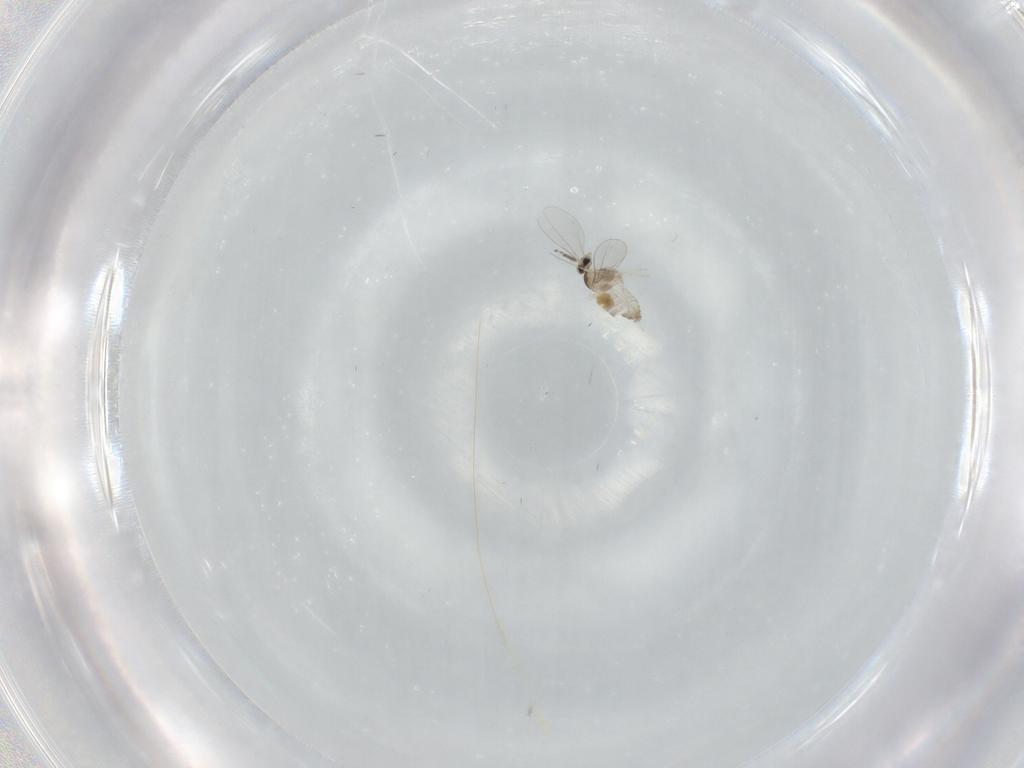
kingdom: Animalia
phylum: Arthropoda
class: Insecta
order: Diptera
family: Cecidomyiidae
